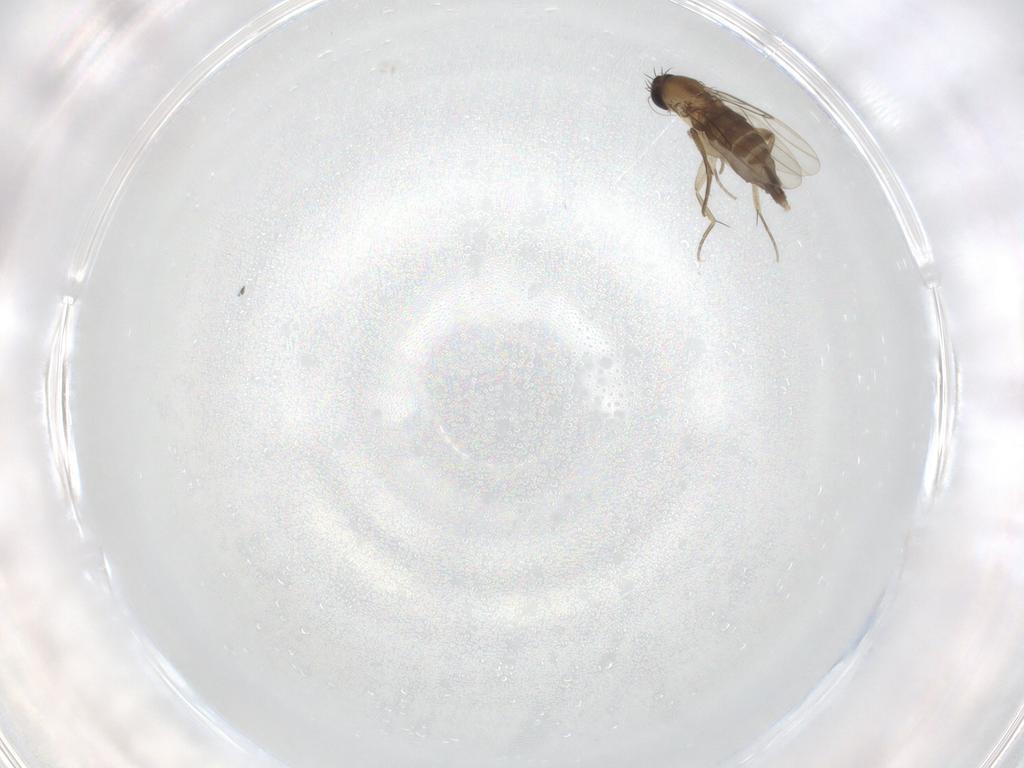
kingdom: Animalia
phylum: Arthropoda
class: Insecta
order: Diptera
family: Phoridae
